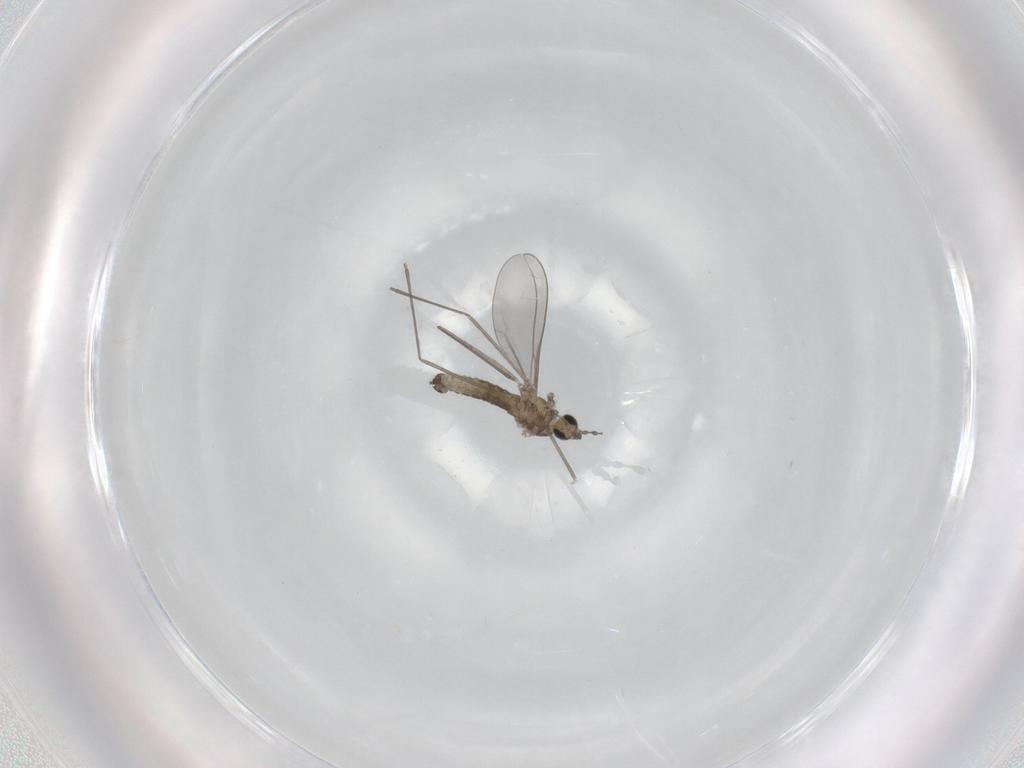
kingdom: Animalia
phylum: Arthropoda
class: Insecta
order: Diptera
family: Cecidomyiidae
